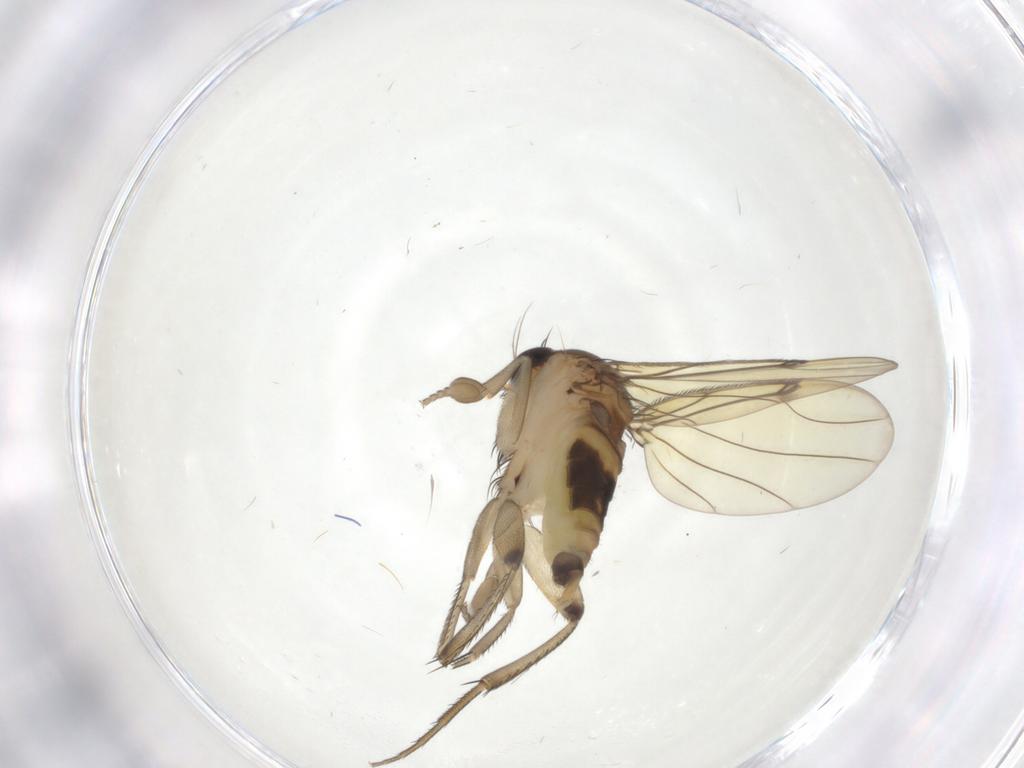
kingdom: Animalia
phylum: Arthropoda
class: Insecta
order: Diptera
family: Phoridae
